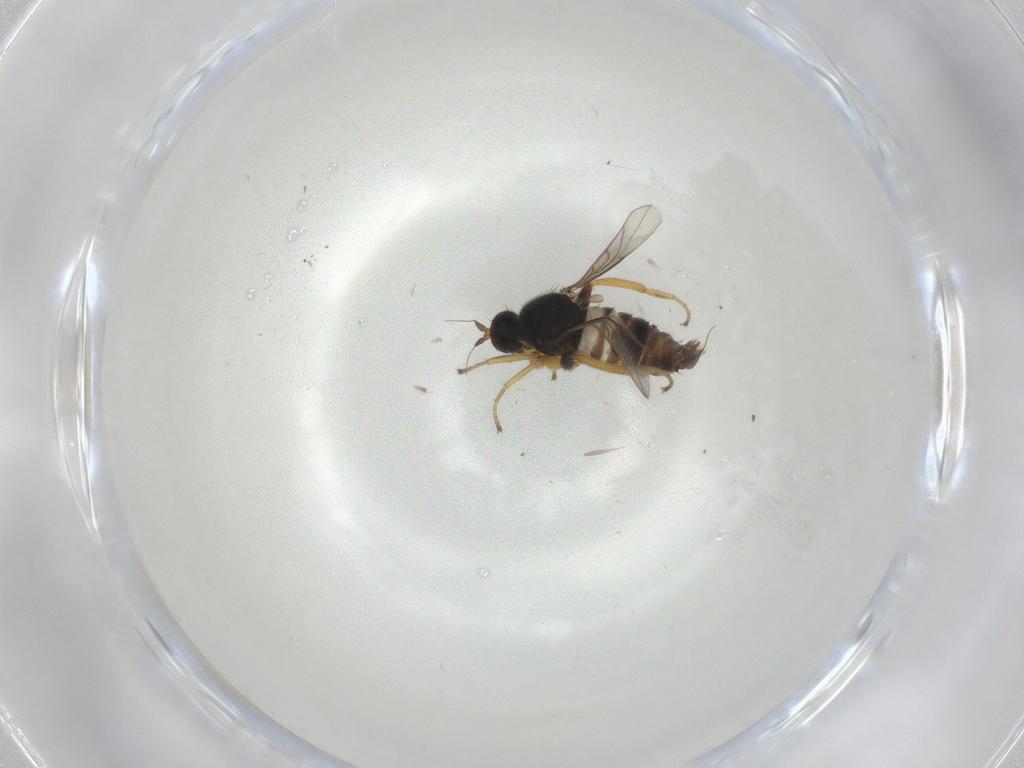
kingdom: Animalia
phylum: Arthropoda
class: Insecta
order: Diptera
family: Hybotidae
